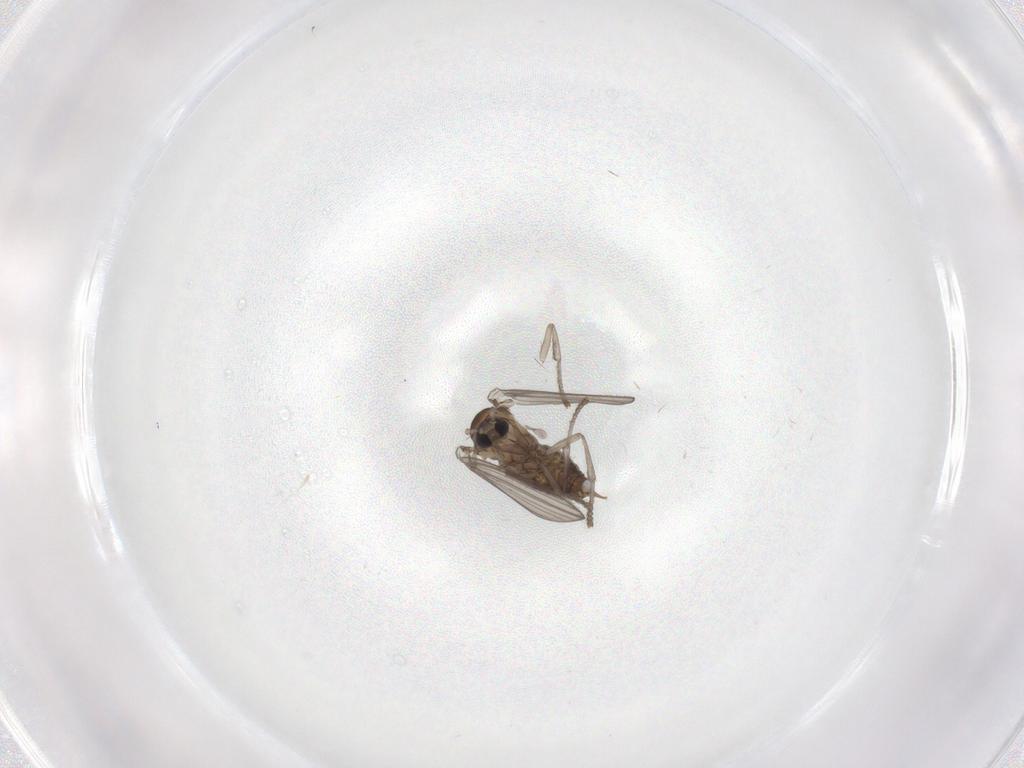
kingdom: Animalia
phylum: Arthropoda
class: Insecta
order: Diptera
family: Psychodidae
